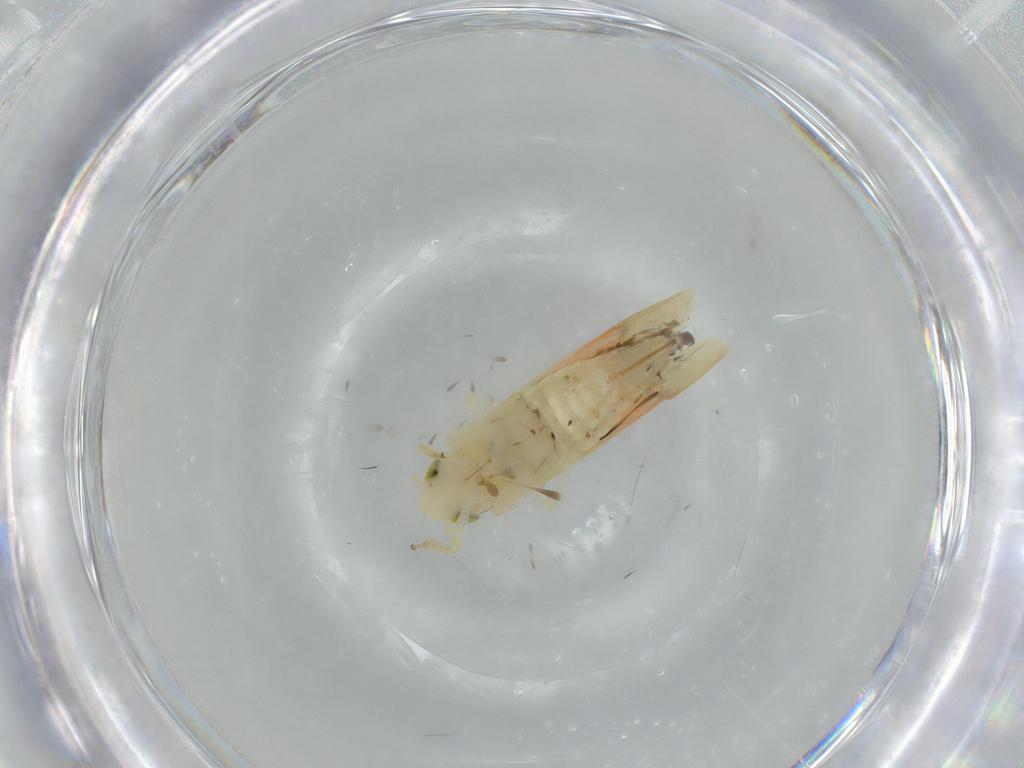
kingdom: Animalia
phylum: Arthropoda
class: Insecta
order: Hemiptera
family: Cicadellidae
